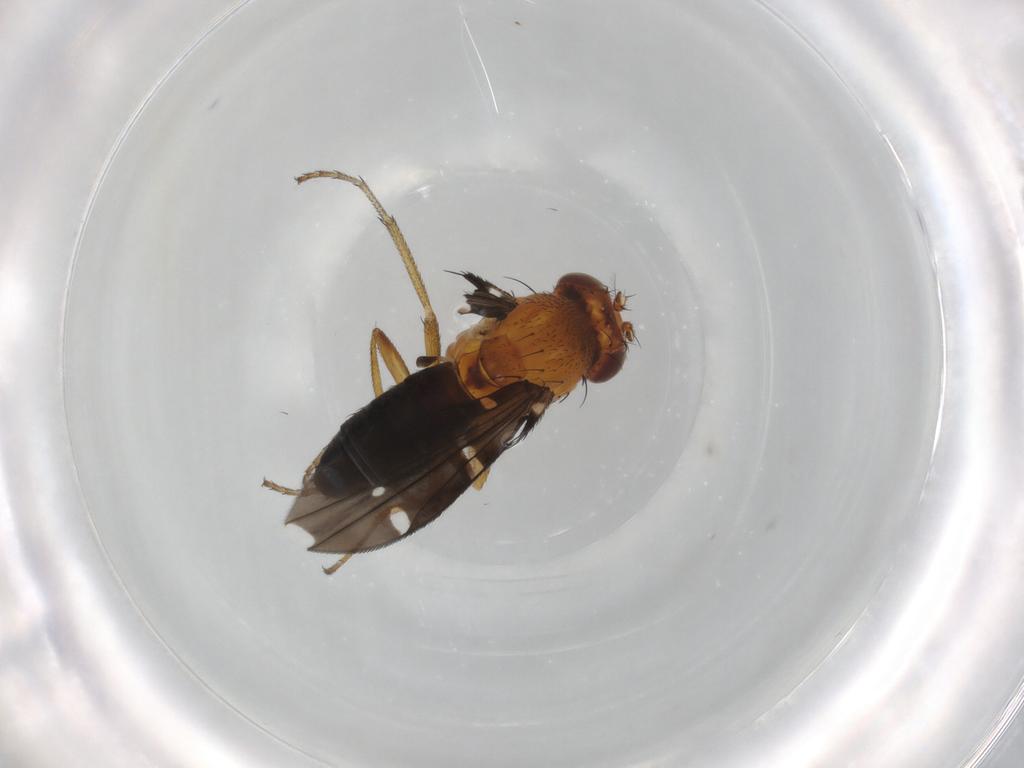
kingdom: Animalia
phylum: Arthropoda
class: Insecta
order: Diptera
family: Ephydridae
